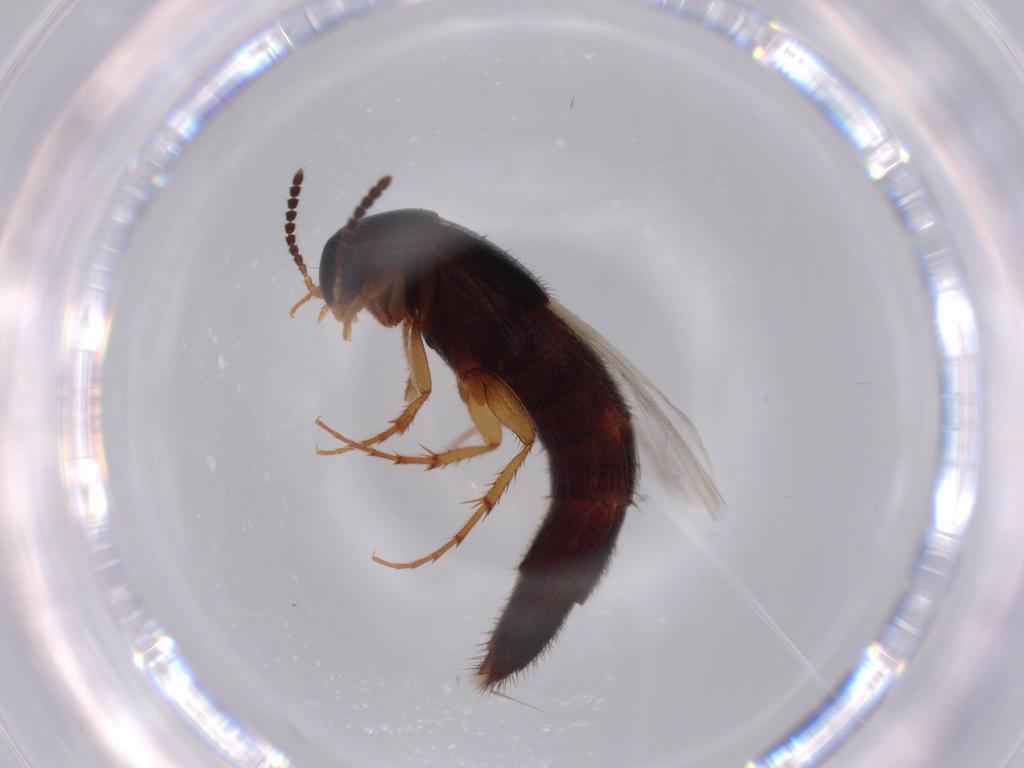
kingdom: Animalia
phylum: Arthropoda
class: Insecta
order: Coleoptera
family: Staphylinidae
